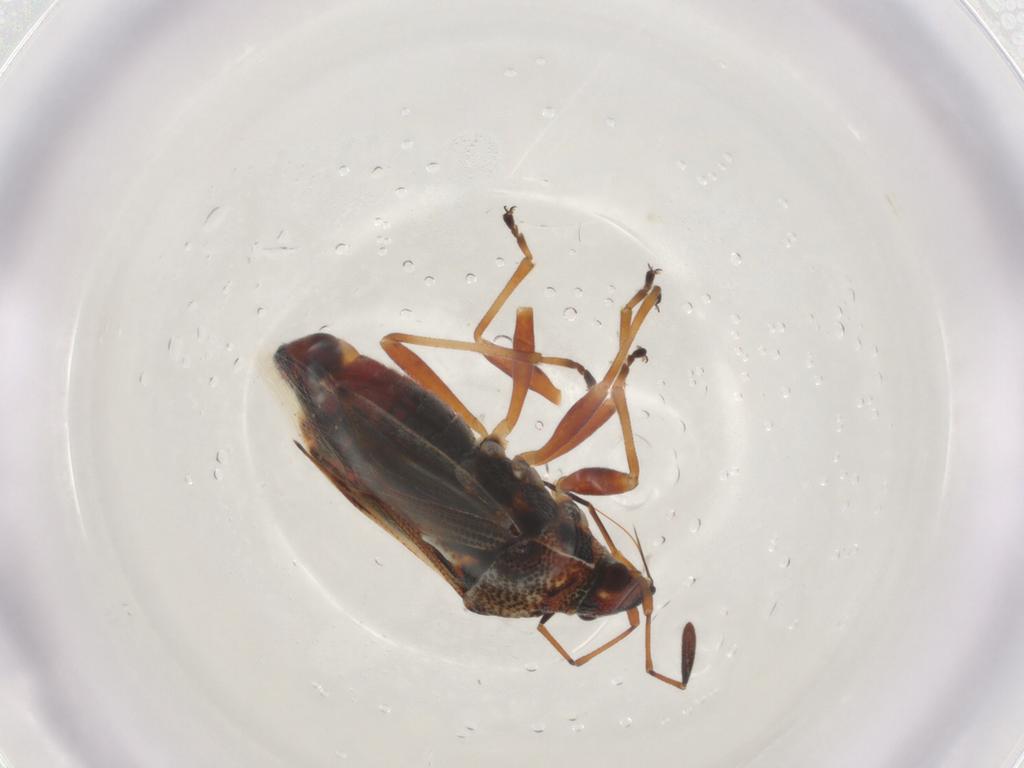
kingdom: Animalia
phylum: Arthropoda
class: Insecta
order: Hemiptera
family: Lygaeidae
